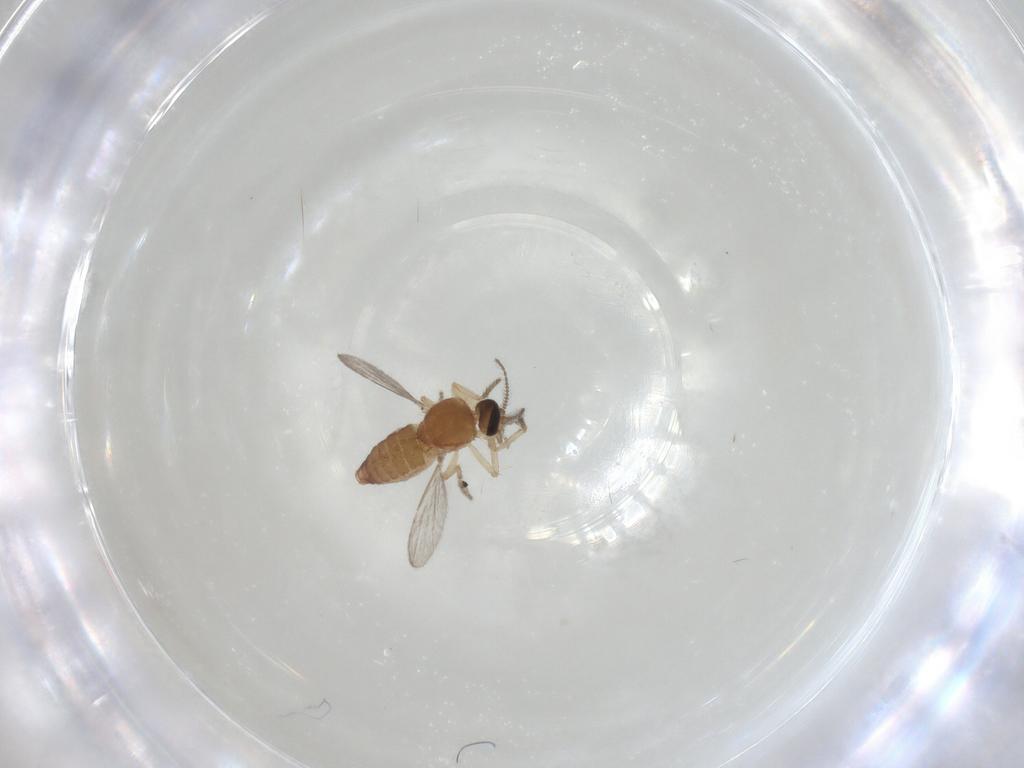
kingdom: Animalia
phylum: Arthropoda
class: Insecta
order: Diptera
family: Ceratopogonidae
